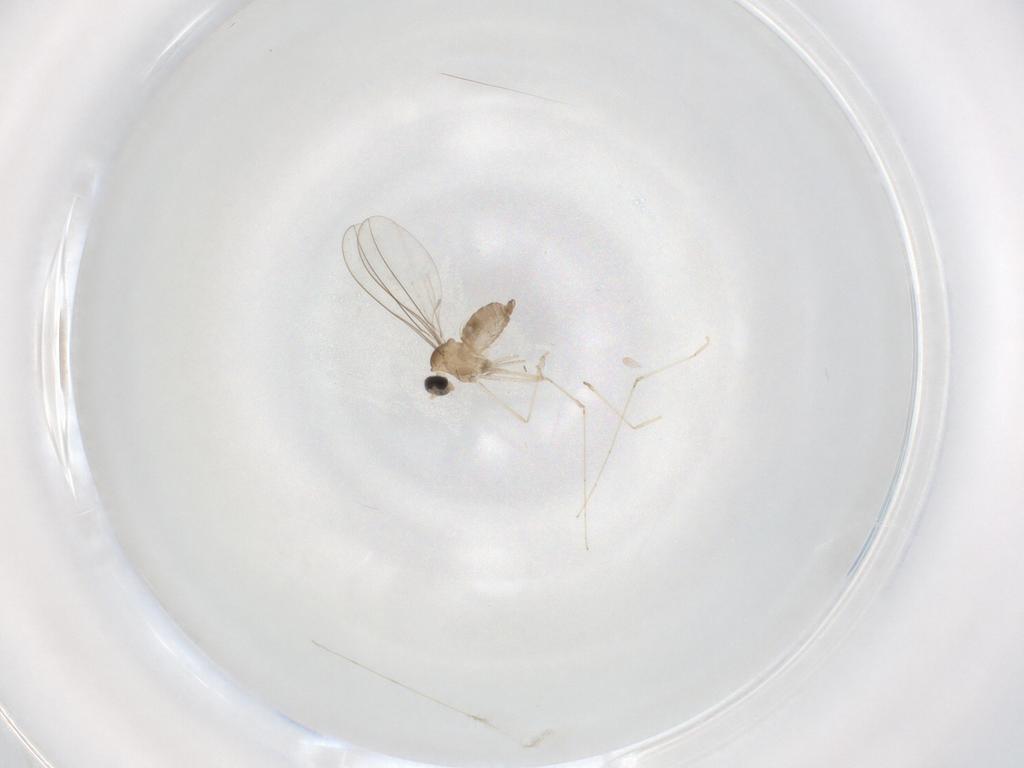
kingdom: Animalia
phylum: Arthropoda
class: Insecta
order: Diptera
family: Cecidomyiidae
